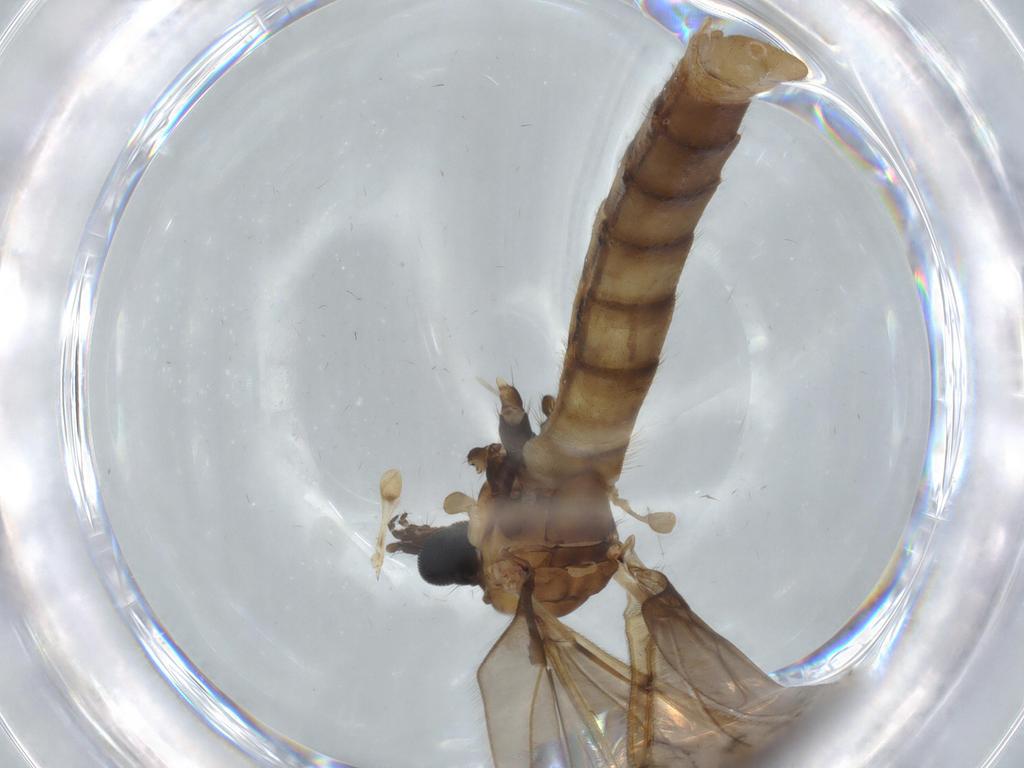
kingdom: Animalia
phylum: Arthropoda
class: Insecta
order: Diptera
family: Limoniidae
